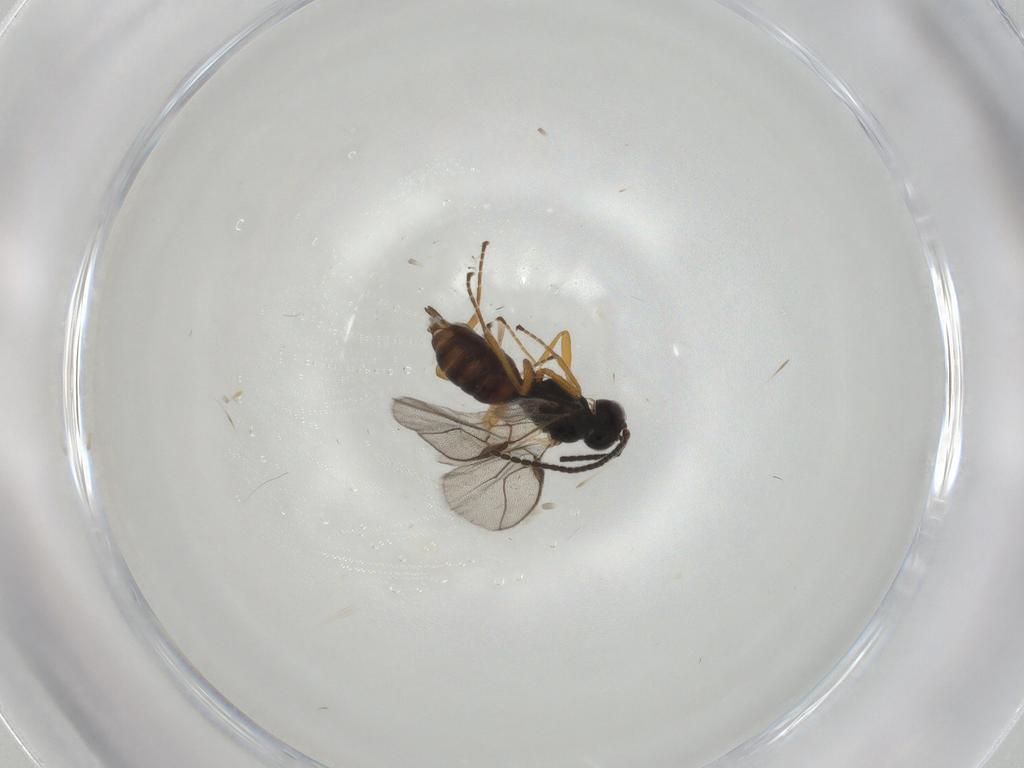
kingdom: Animalia
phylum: Arthropoda
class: Insecta
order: Hymenoptera
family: Braconidae
